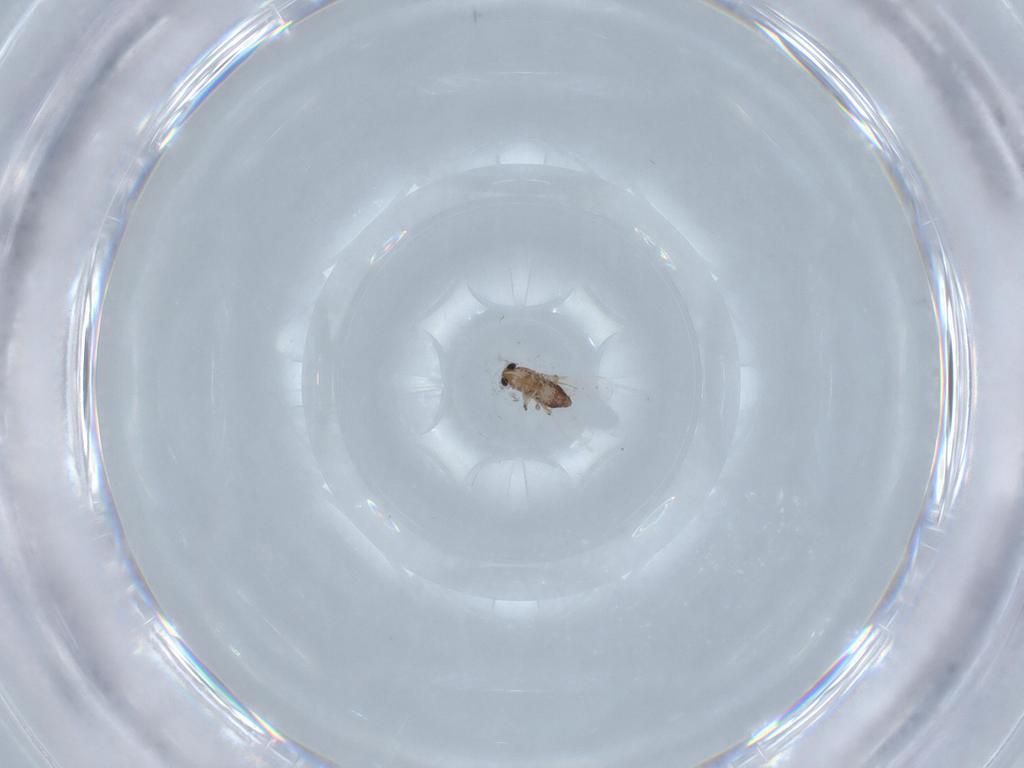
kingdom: Animalia
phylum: Arthropoda
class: Insecta
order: Diptera
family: Chironomidae
